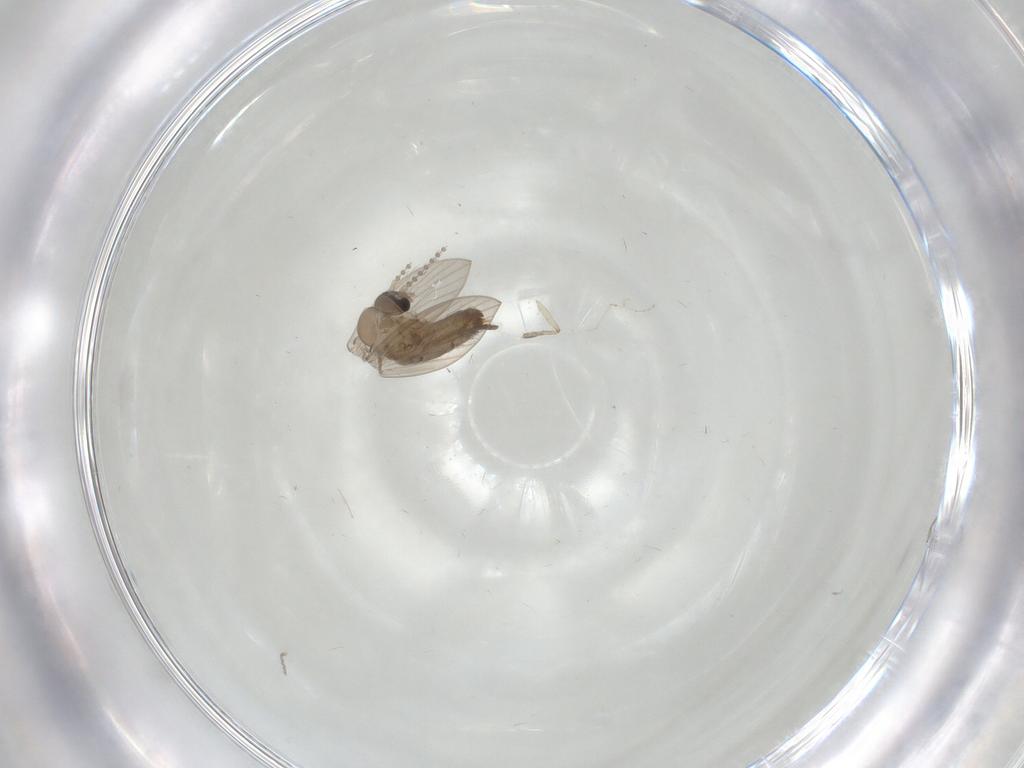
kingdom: Animalia
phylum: Arthropoda
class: Insecta
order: Diptera
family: Psychodidae
